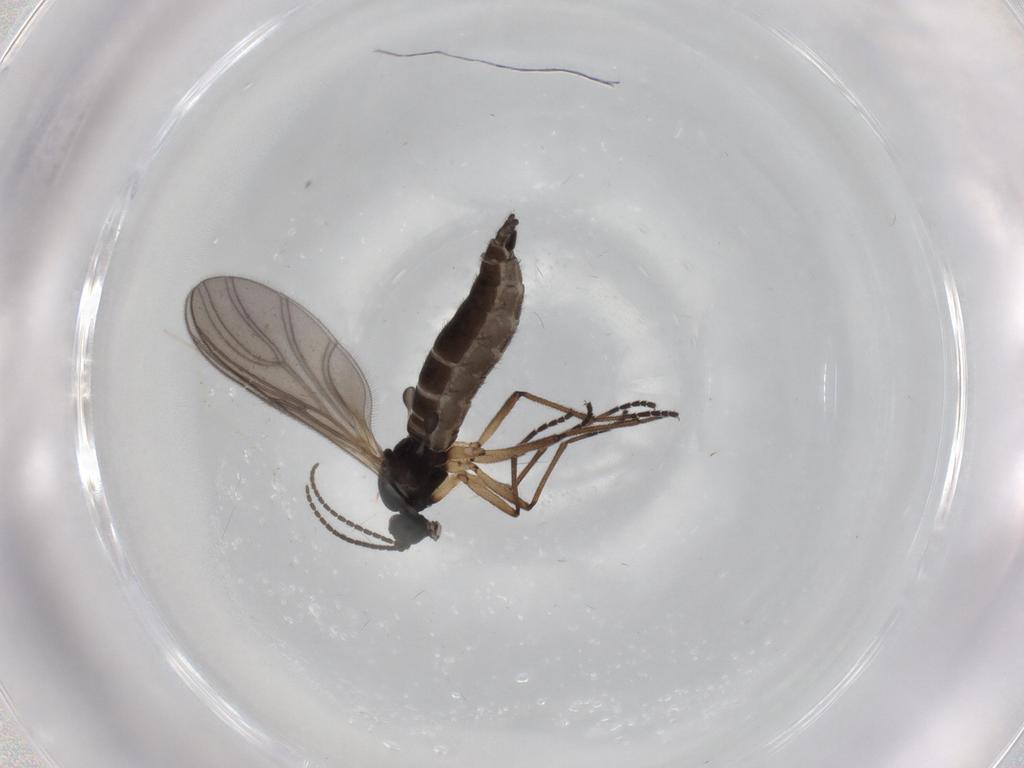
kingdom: Animalia
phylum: Arthropoda
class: Insecta
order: Diptera
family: Sciaridae
